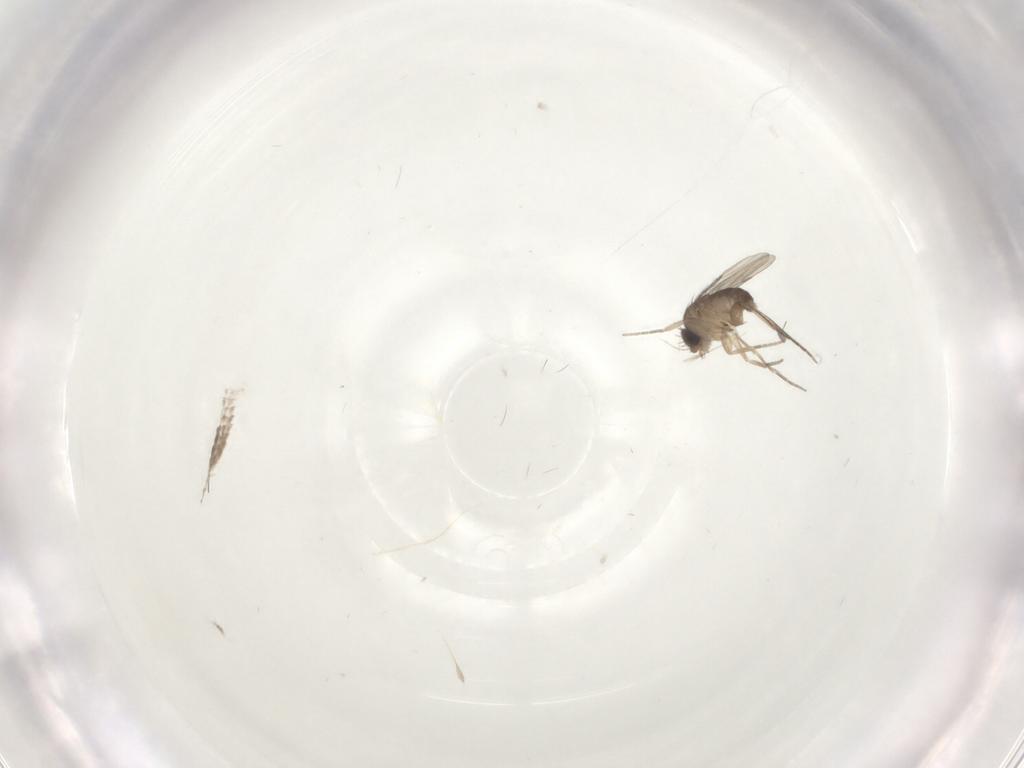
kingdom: Animalia
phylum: Arthropoda
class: Insecta
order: Diptera
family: Phoridae
